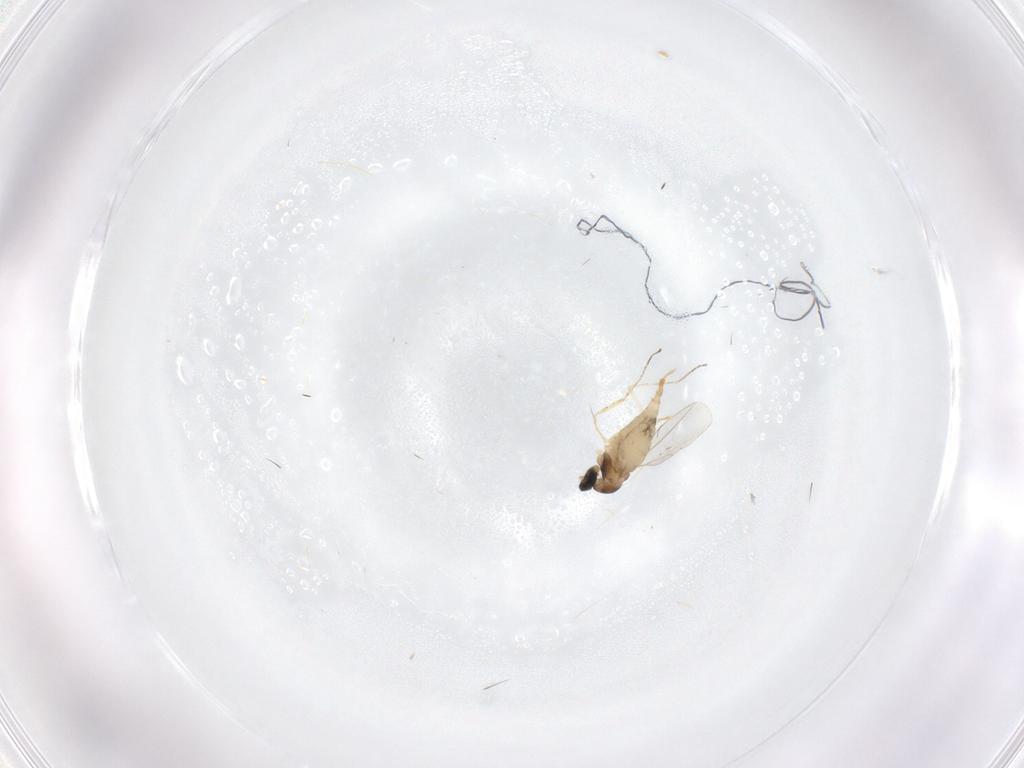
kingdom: Animalia
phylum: Arthropoda
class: Insecta
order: Diptera
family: Cecidomyiidae
